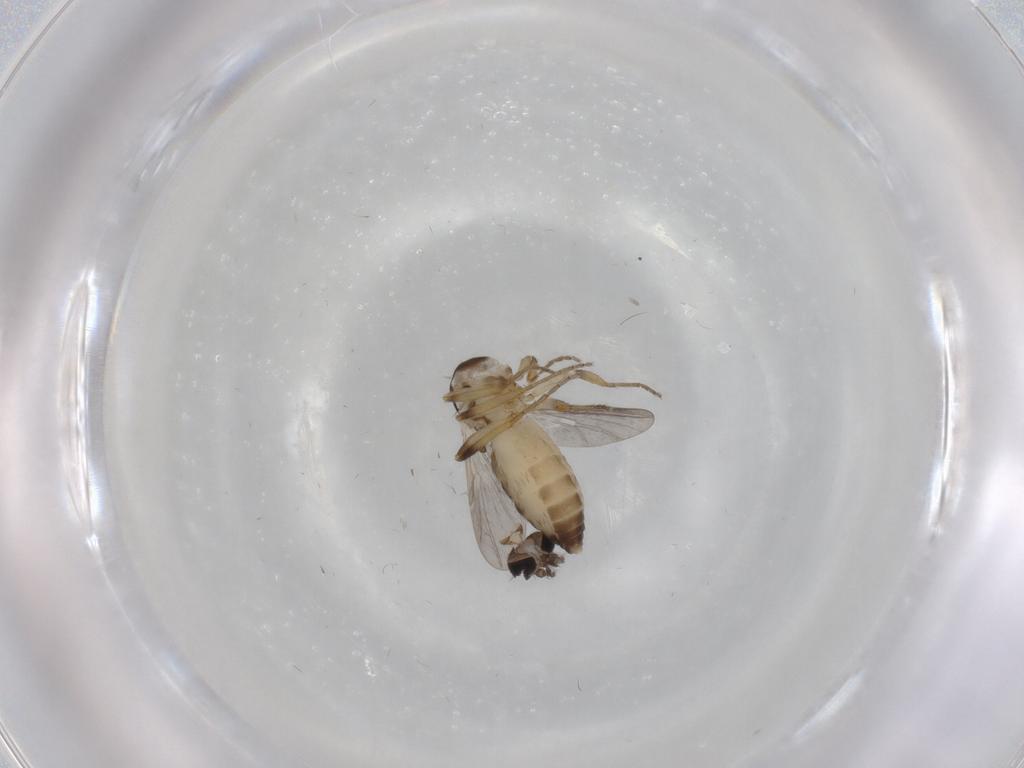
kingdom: Animalia
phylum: Arthropoda
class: Insecta
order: Diptera
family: Ceratopogonidae
